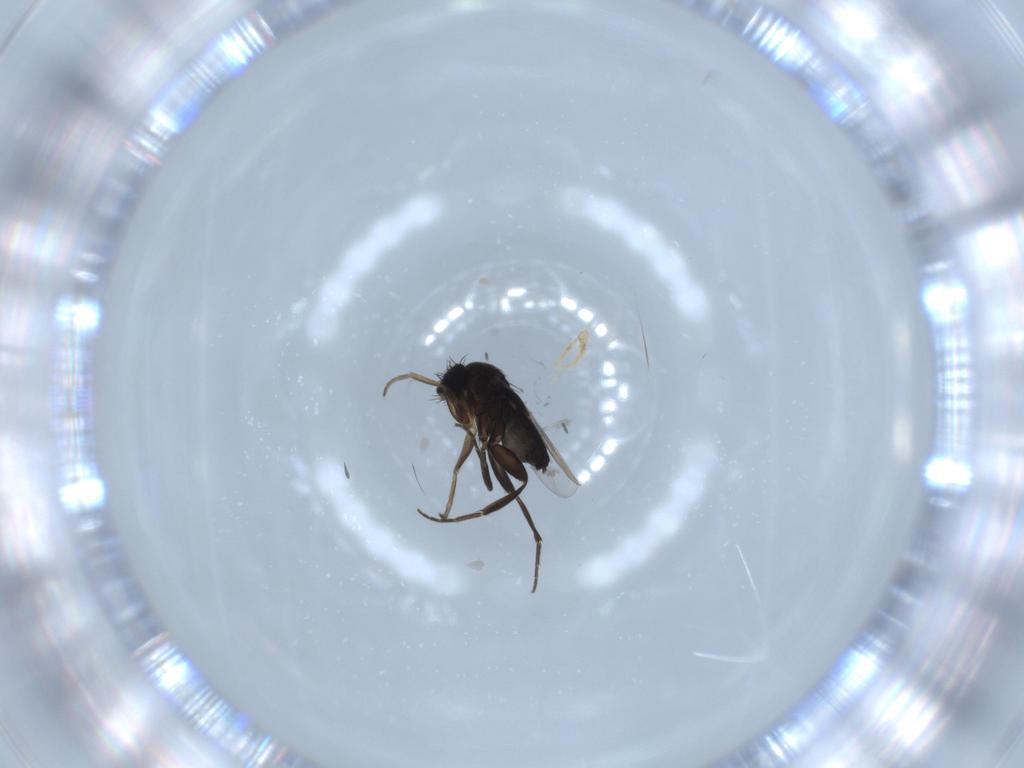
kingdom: Animalia
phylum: Arthropoda
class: Insecta
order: Diptera
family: Phoridae
